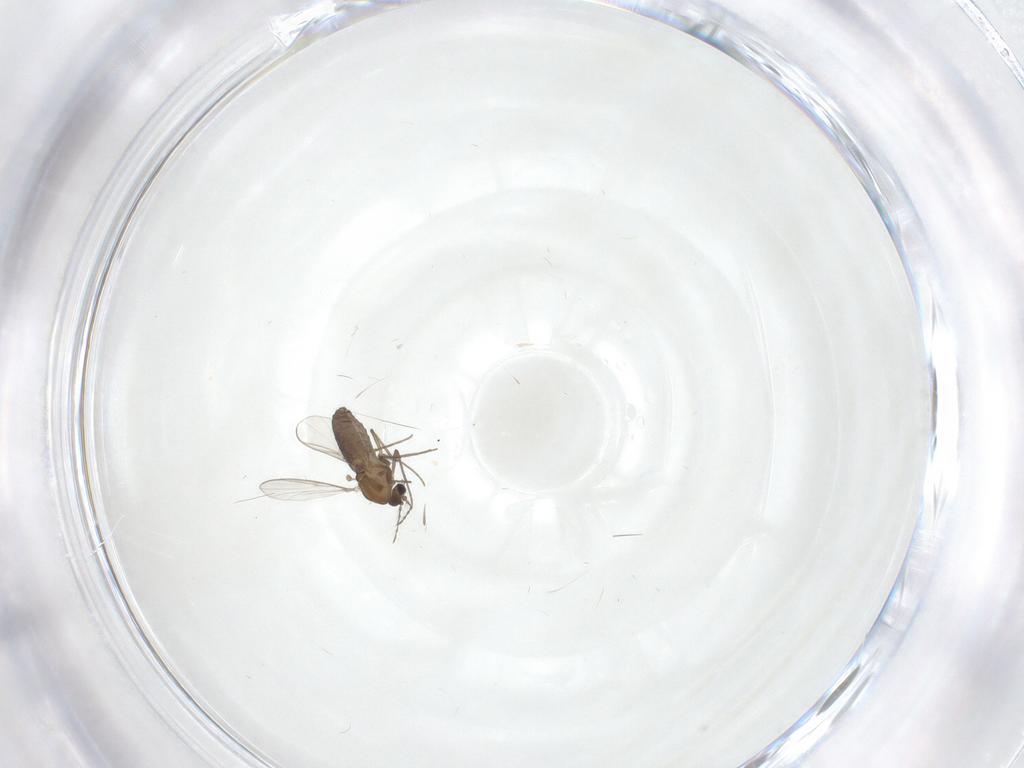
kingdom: Animalia
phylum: Arthropoda
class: Insecta
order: Diptera
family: Chironomidae
